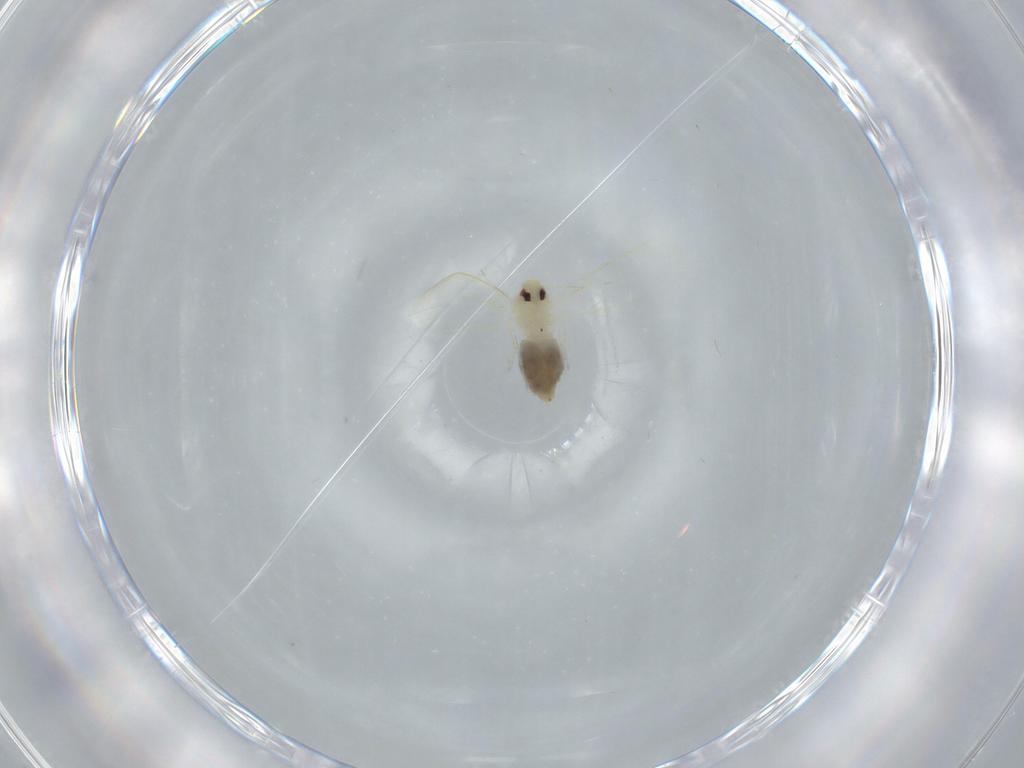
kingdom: Animalia
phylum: Arthropoda
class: Insecta
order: Hemiptera
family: Aleyrodidae
